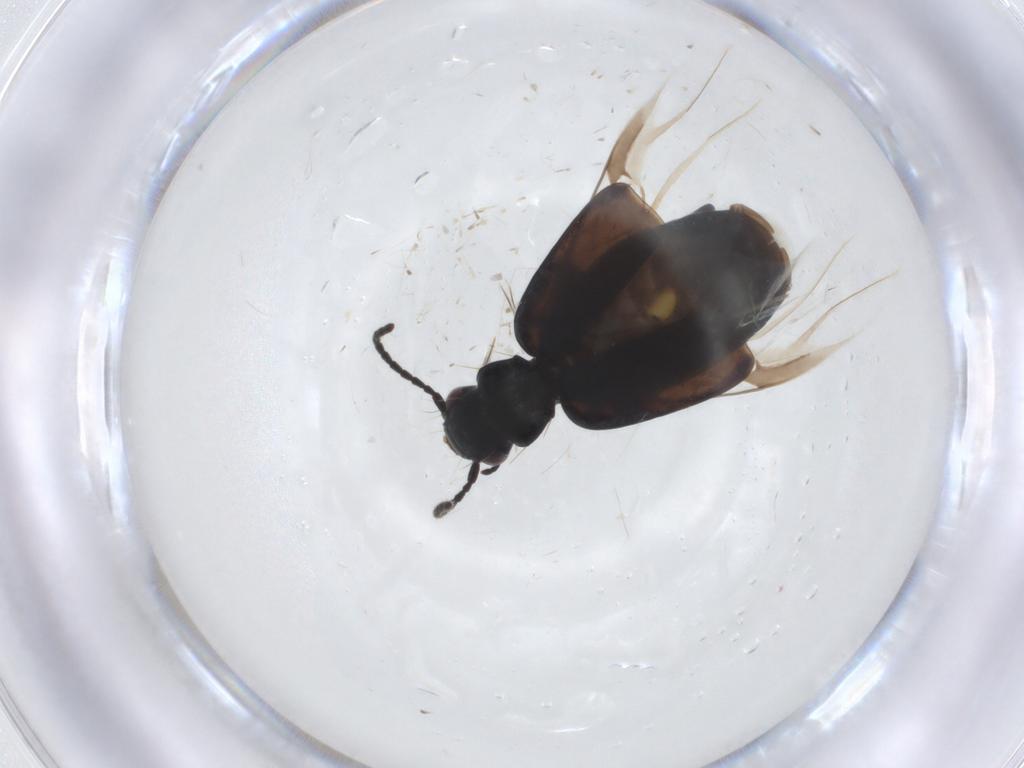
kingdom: Animalia
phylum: Arthropoda
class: Insecta
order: Coleoptera
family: Carabidae
